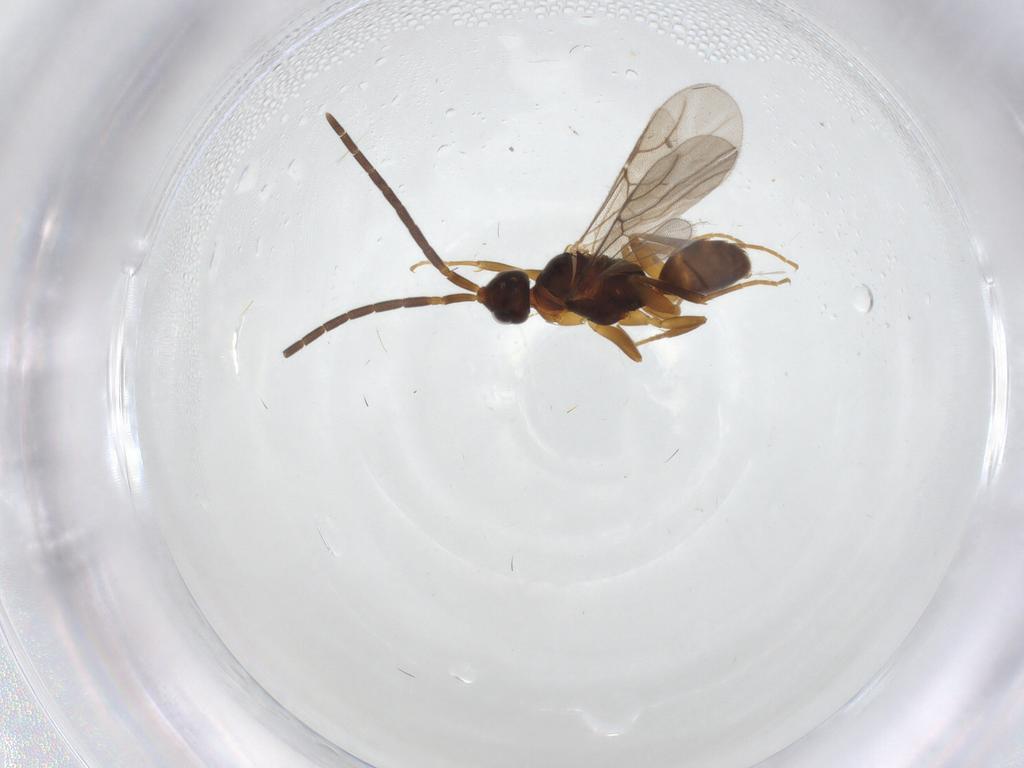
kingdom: Animalia
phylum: Arthropoda
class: Insecta
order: Hymenoptera
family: Embolemidae
